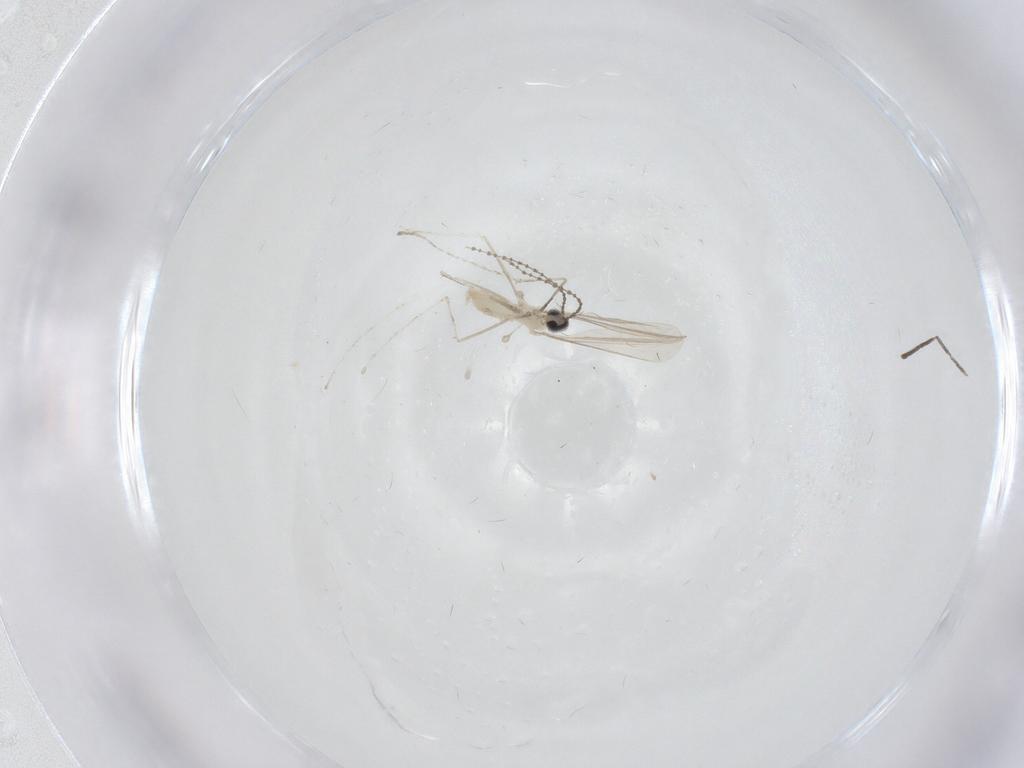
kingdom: Animalia
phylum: Arthropoda
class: Insecta
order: Diptera
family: Cecidomyiidae
